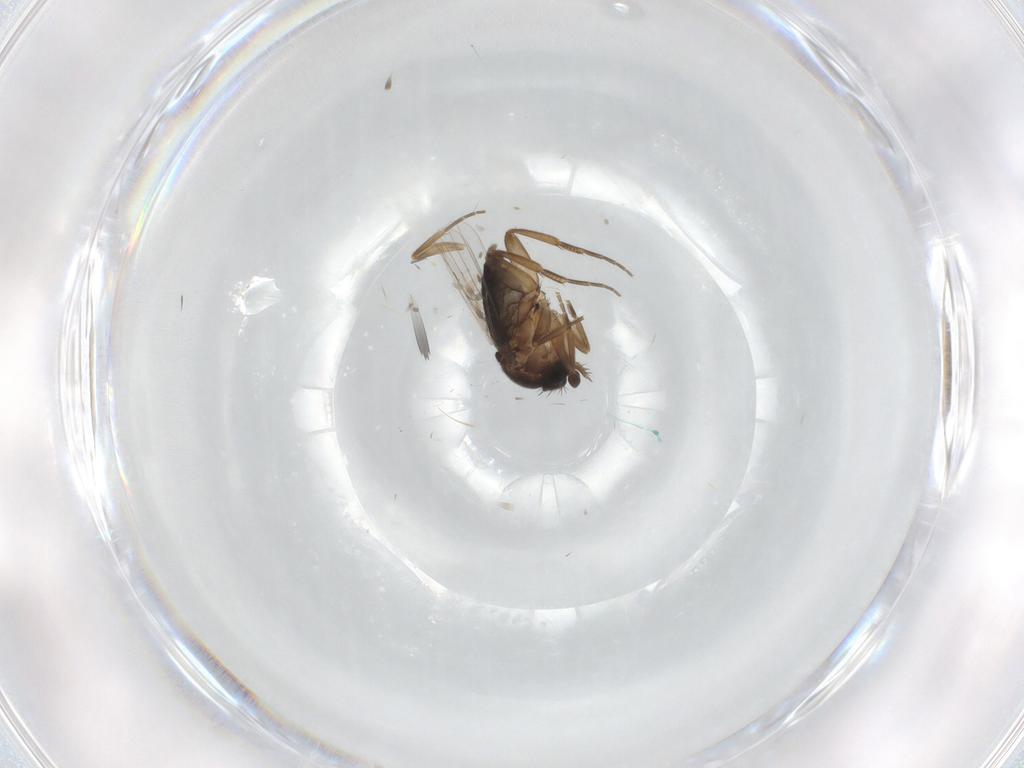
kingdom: Animalia
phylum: Arthropoda
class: Insecta
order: Diptera
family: Phoridae
